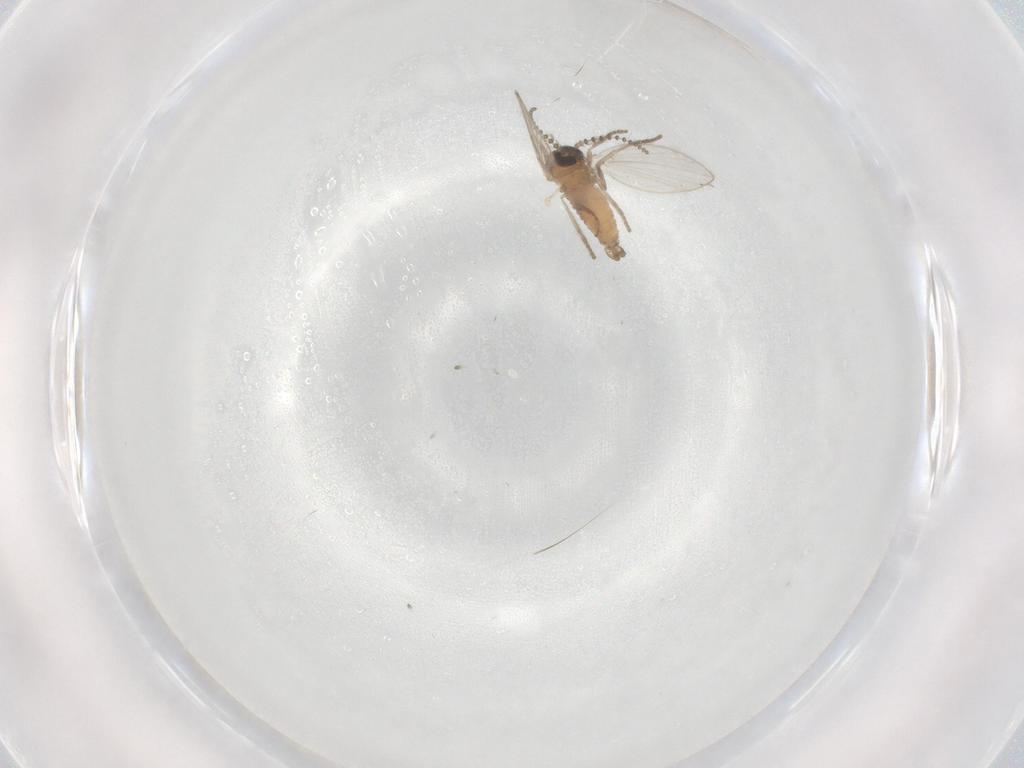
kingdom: Animalia
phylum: Arthropoda
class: Insecta
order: Diptera
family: Psychodidae
